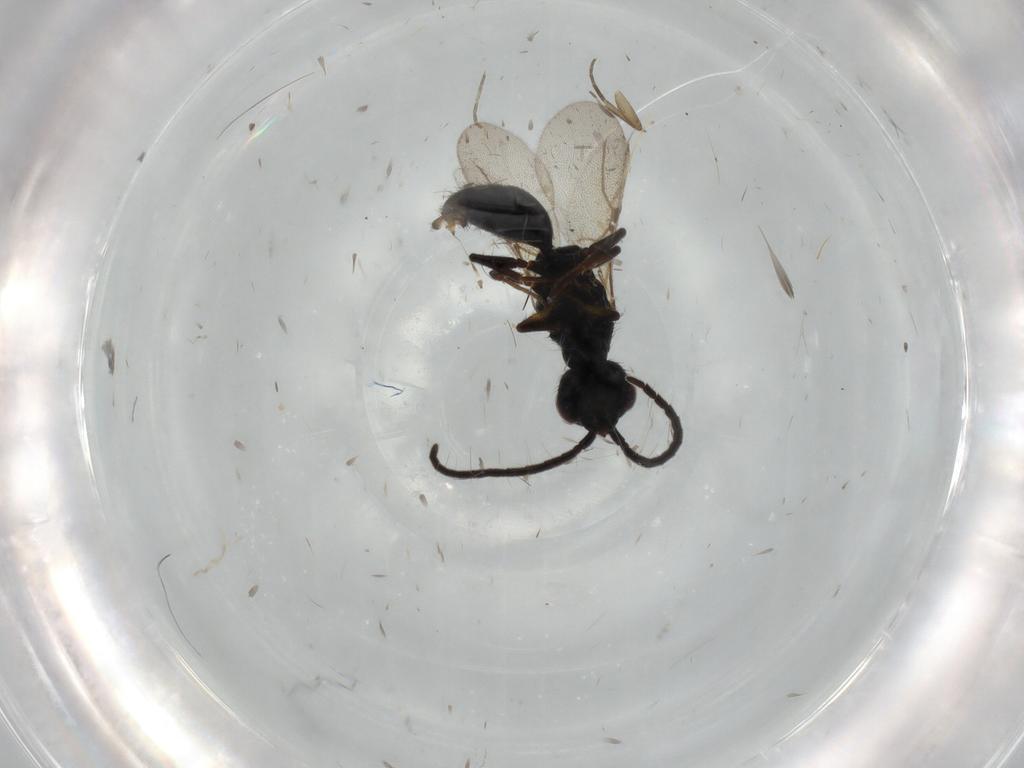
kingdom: Animalia
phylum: Arthropoda
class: Insecta
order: Hymenoptera
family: Bethylidae
